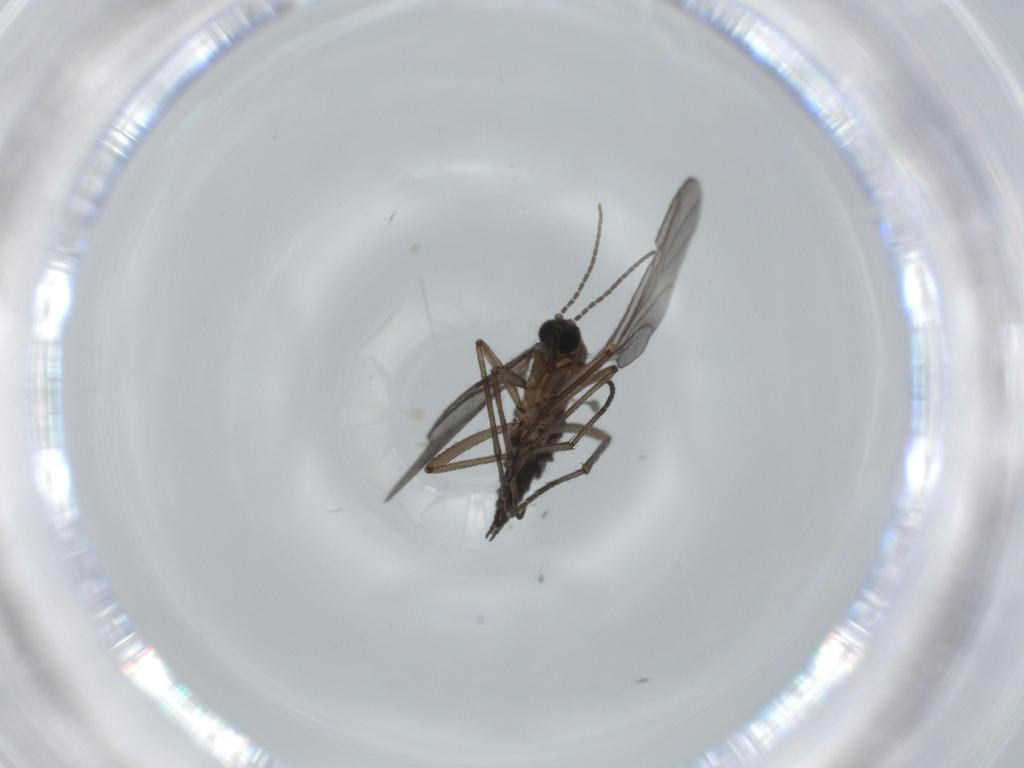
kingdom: Animalia
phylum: Arthropoda
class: Insecta
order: Diptera
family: Sciaridae
